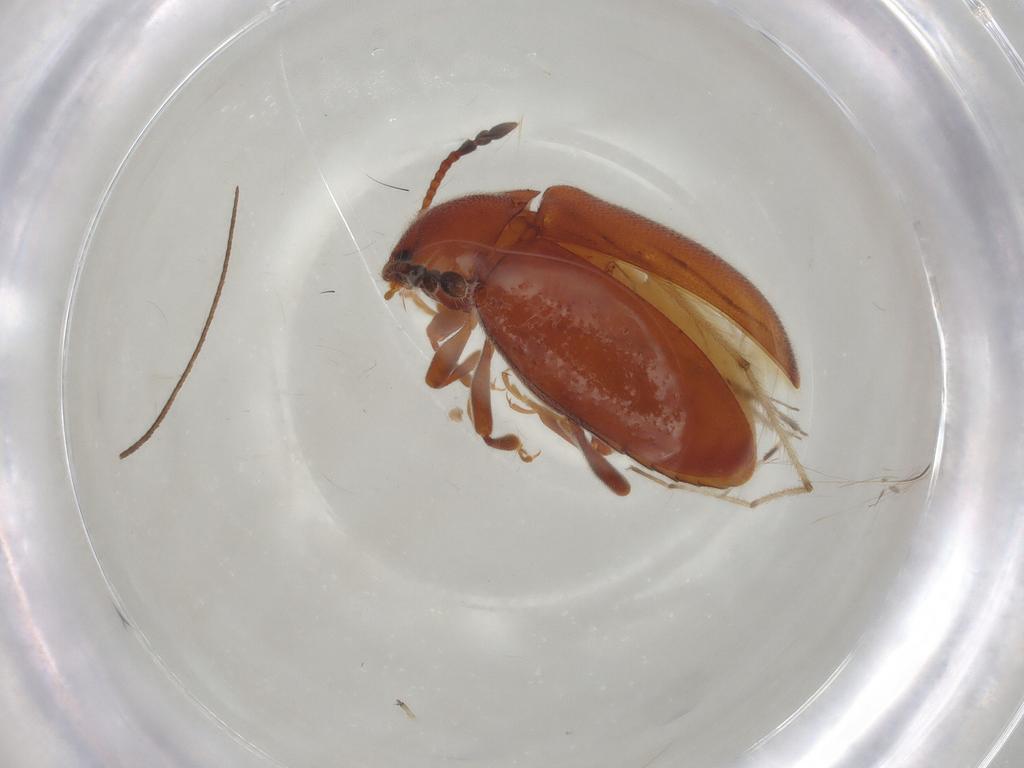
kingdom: Animalia
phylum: Arthropoda
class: Insecta
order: Coleoptera
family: Endomychidae
